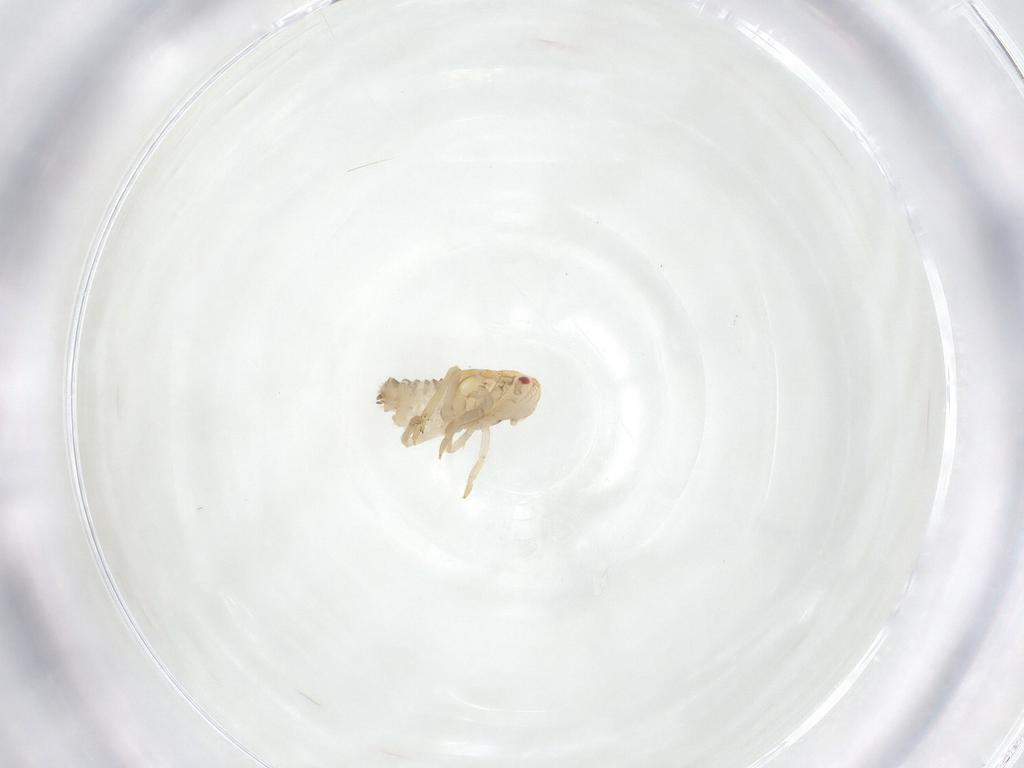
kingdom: Animalia
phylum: Arthropoda
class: Insecta
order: Hemiptera
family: Ricaniidae
